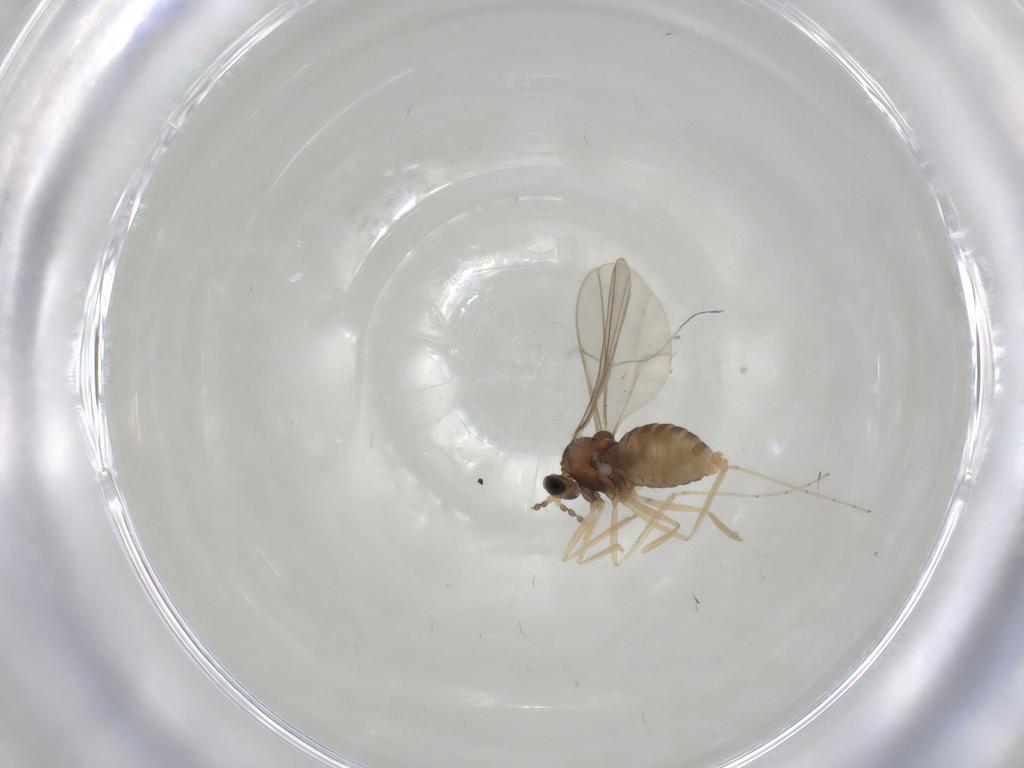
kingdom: Animalia
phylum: Arthropoda
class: Insecta
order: Diptera
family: Cecidomyiidae
